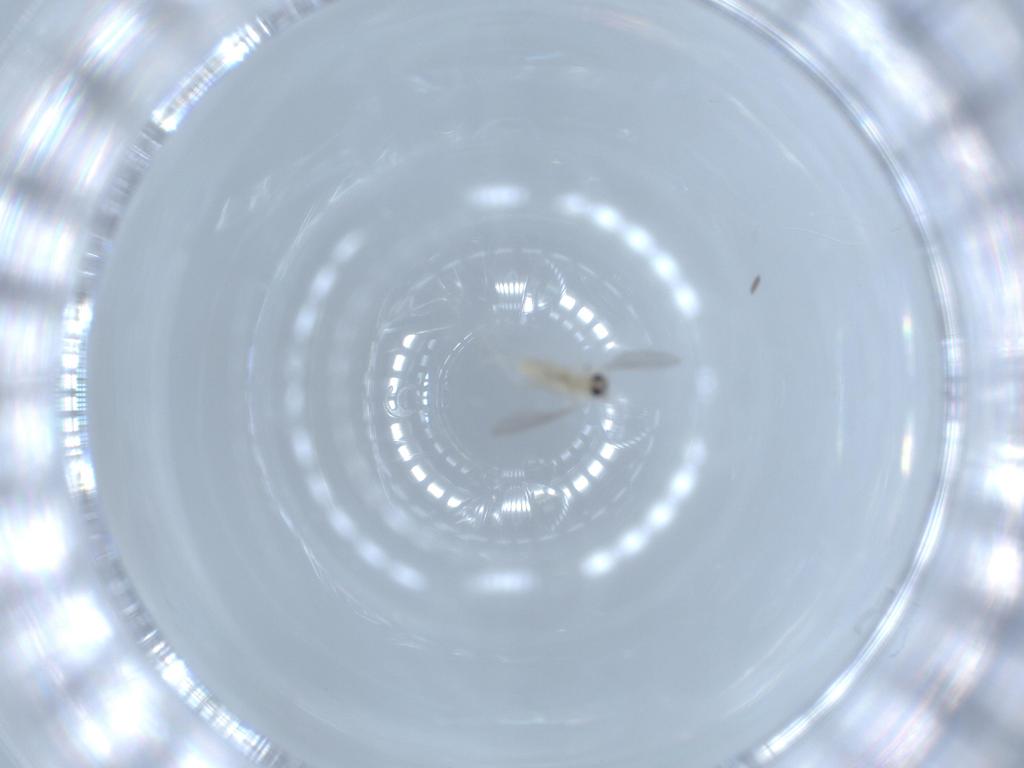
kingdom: Animalia
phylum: Arthropoda
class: Insecta
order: Diptera
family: Cecidomyiidae
